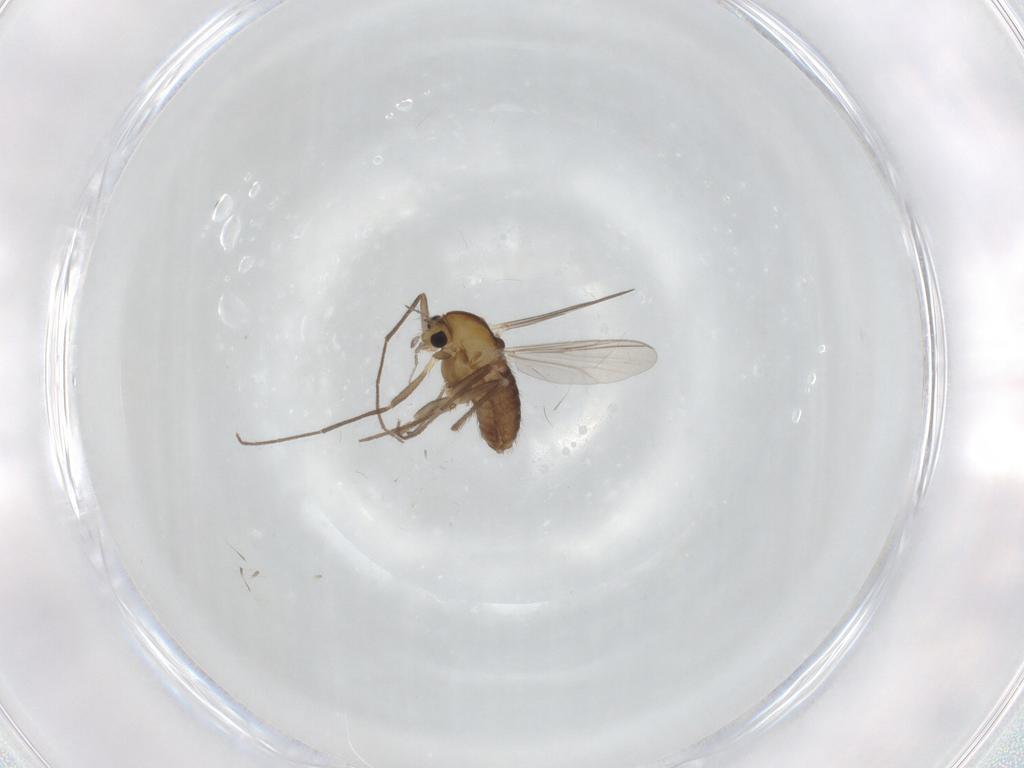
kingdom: Animalia
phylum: Arthropoda
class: Insecta
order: Diptera
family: Chironomidae
